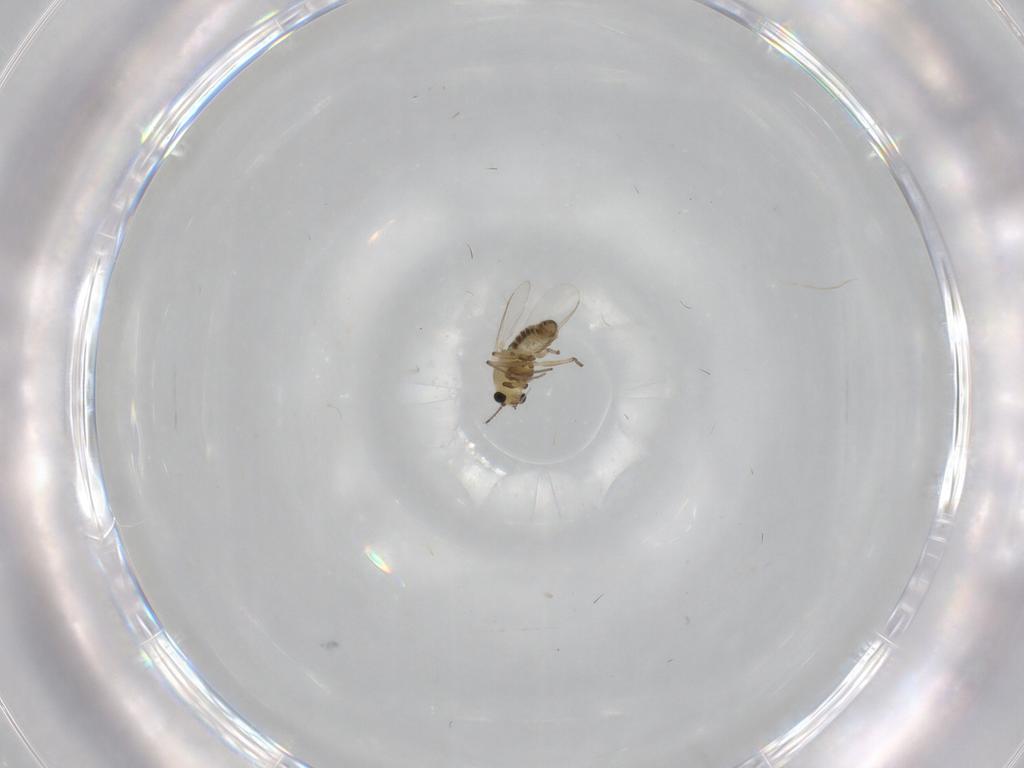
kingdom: Animalia
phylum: Arthropoda
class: Insecta
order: Diptera
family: Chironomidae
